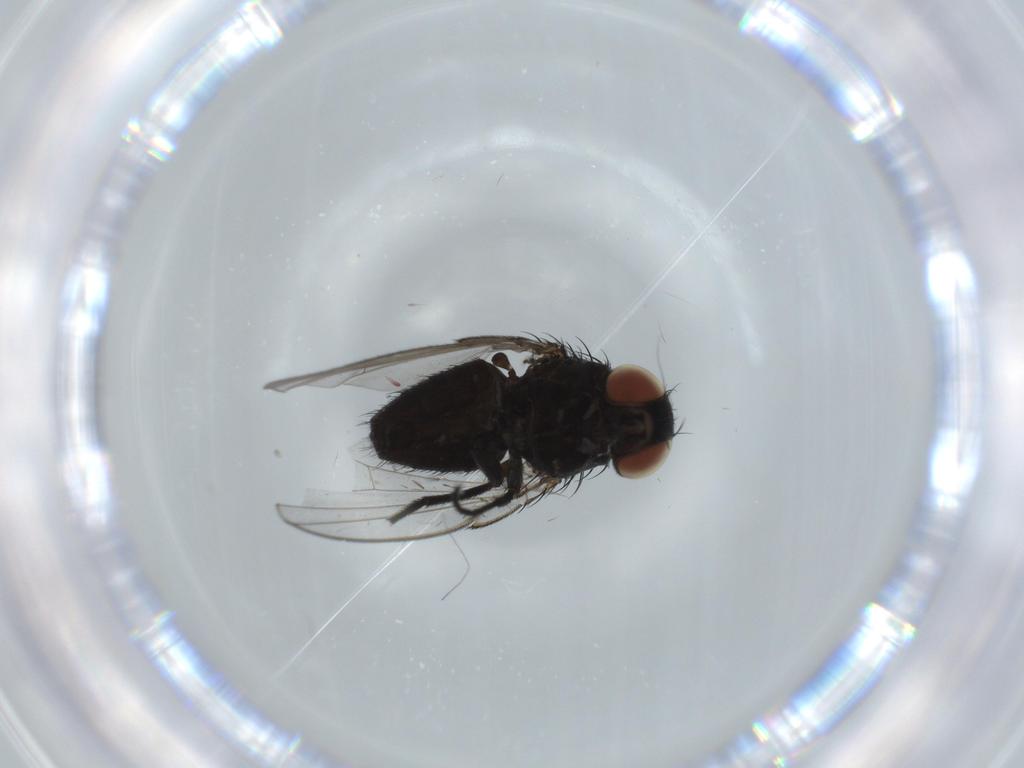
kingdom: Animalia
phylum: Arthropoda
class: Insecta
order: Diptera
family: Milichiidae
